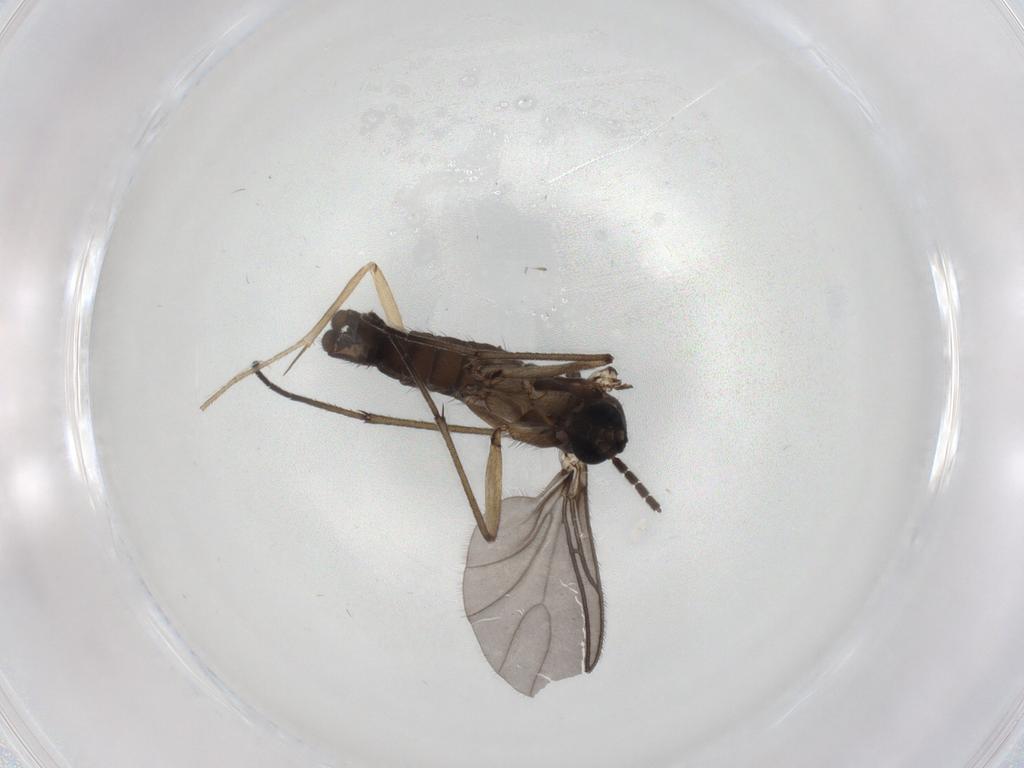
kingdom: Animalia
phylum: Arthropoda
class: Insecta
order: Diptera
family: Sciaridae
